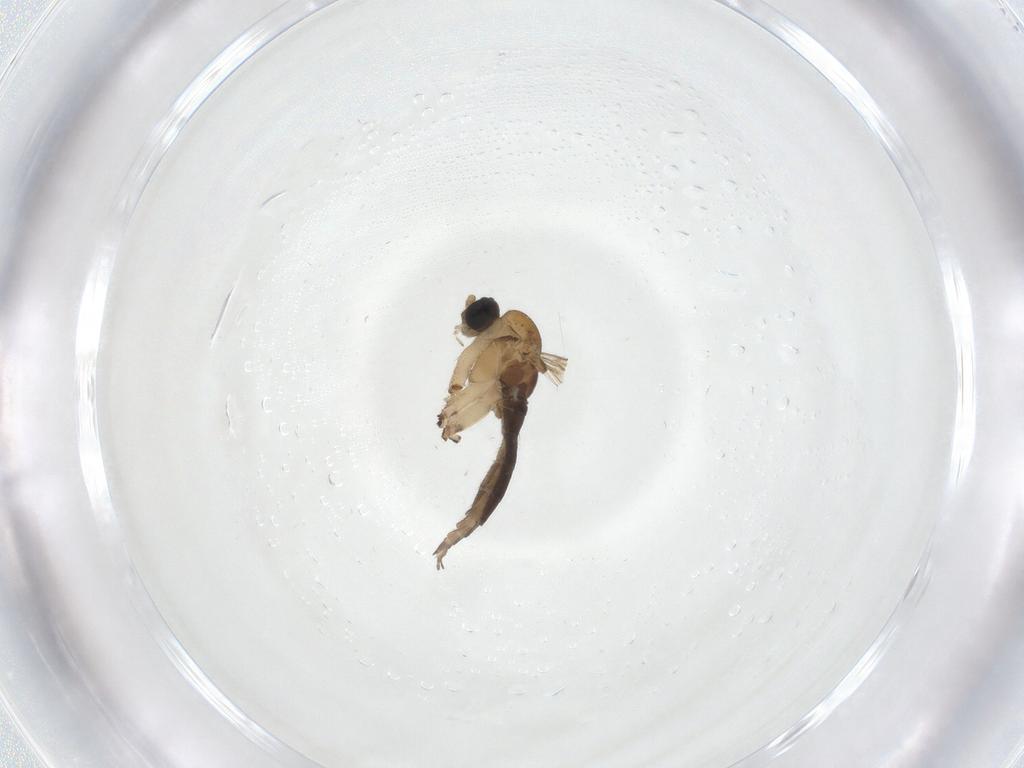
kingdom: Animalia
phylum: Arthropoda
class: Insecta
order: Diptera
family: Sciaridae
